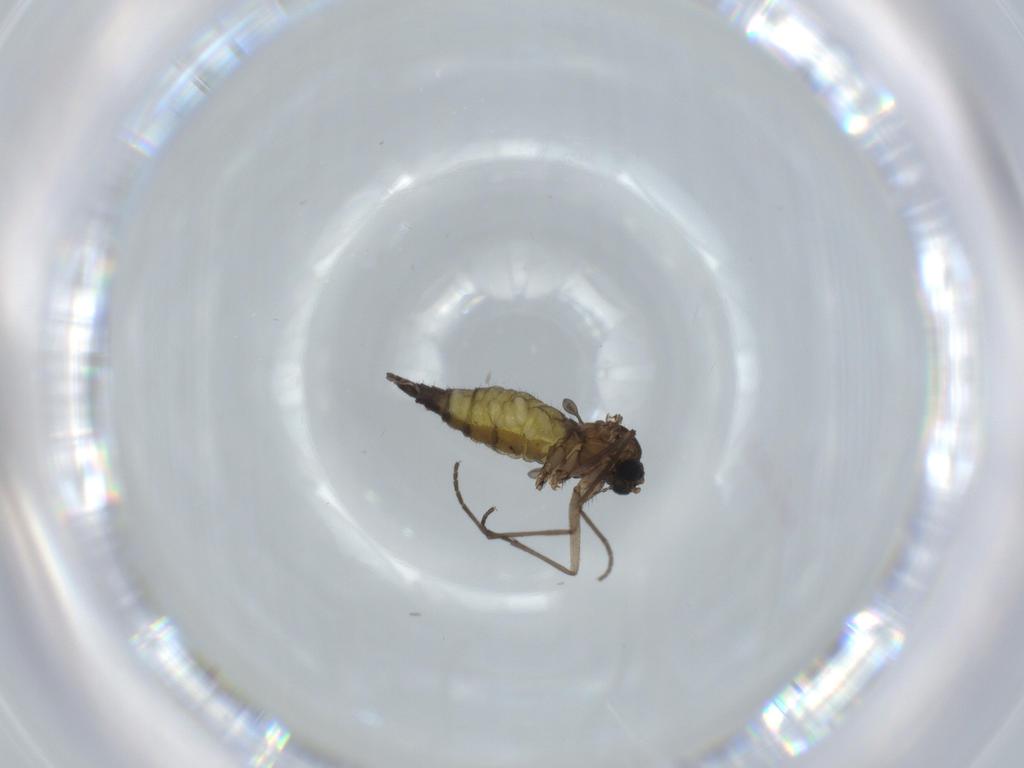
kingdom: Animalia
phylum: Arthropoda
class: Insecta
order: Diptera
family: Sciaridae
